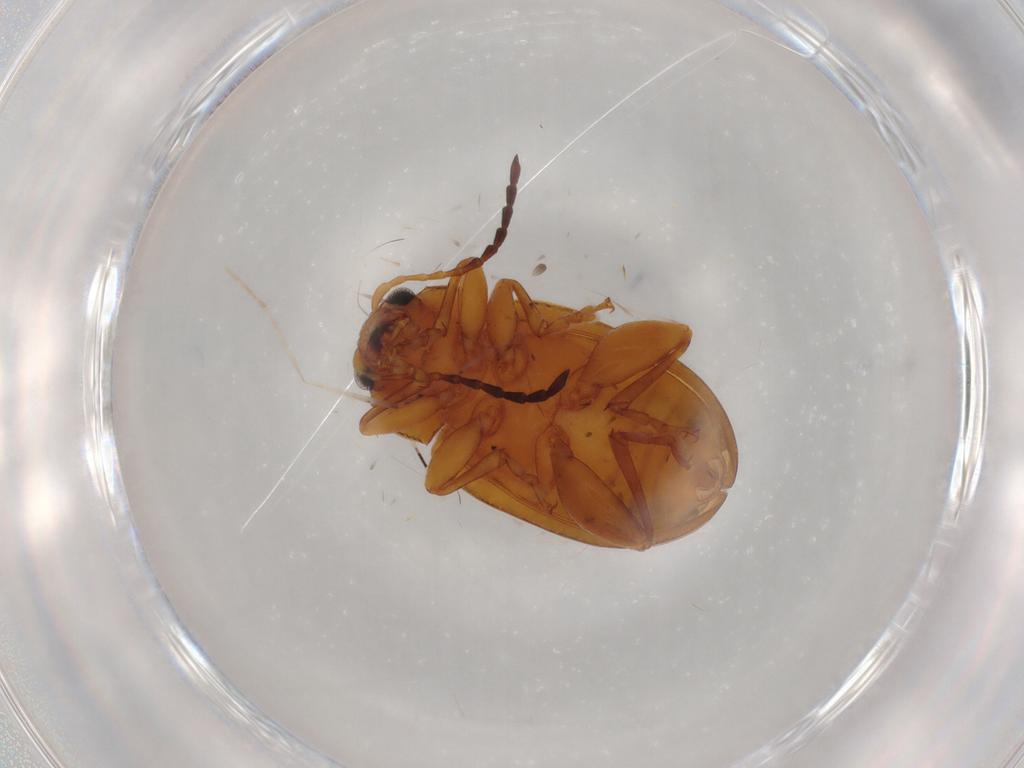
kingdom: Animalia
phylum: Arthropoda
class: Insecta
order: Coleoptera
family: Chrysomelidae
